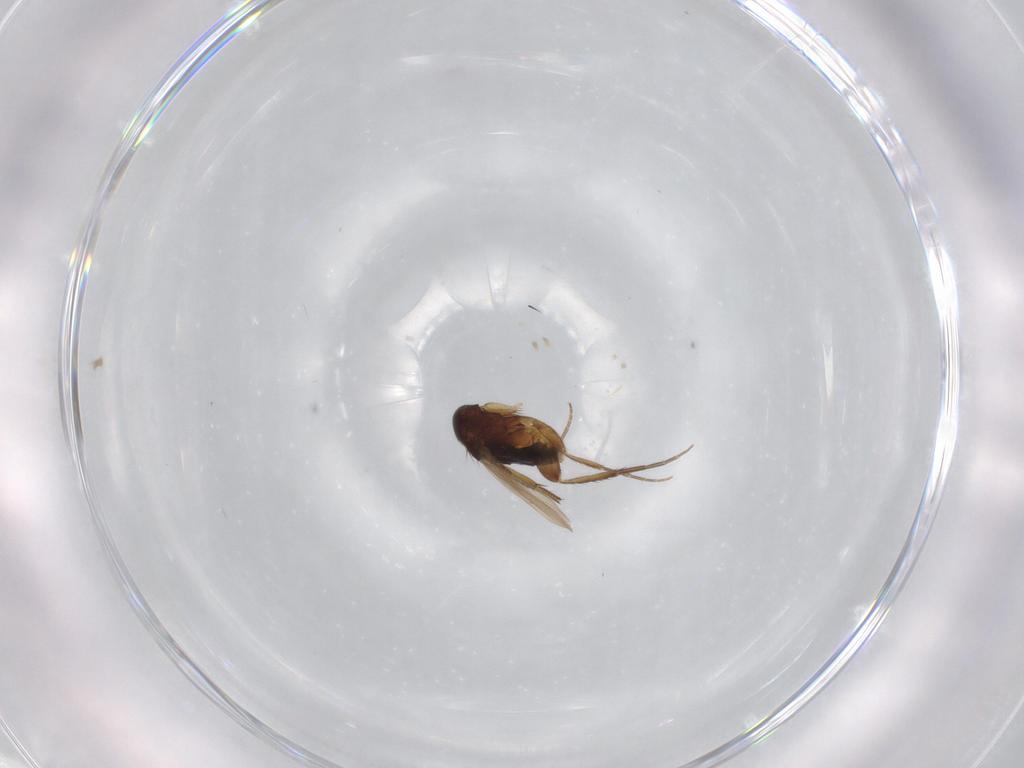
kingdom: Animalia
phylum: Arthropoda
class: Insecta
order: Diptera
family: Phoridae
